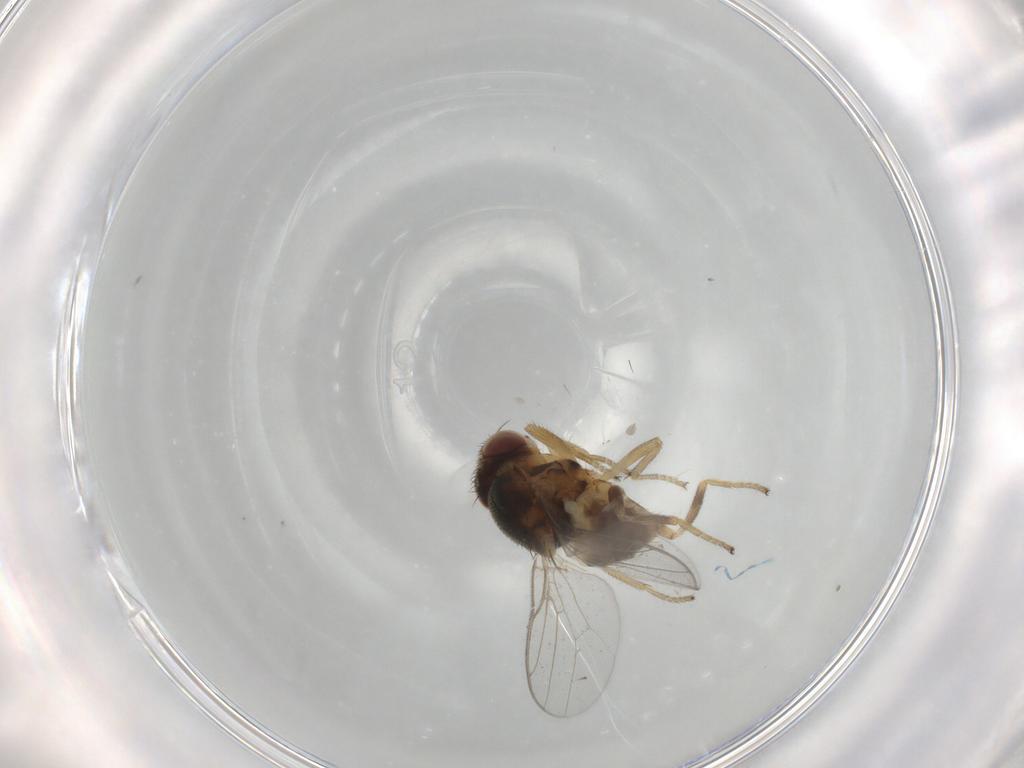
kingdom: Animalia
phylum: Arthropoda
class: Insecta
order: Diptera
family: Chloropidae
